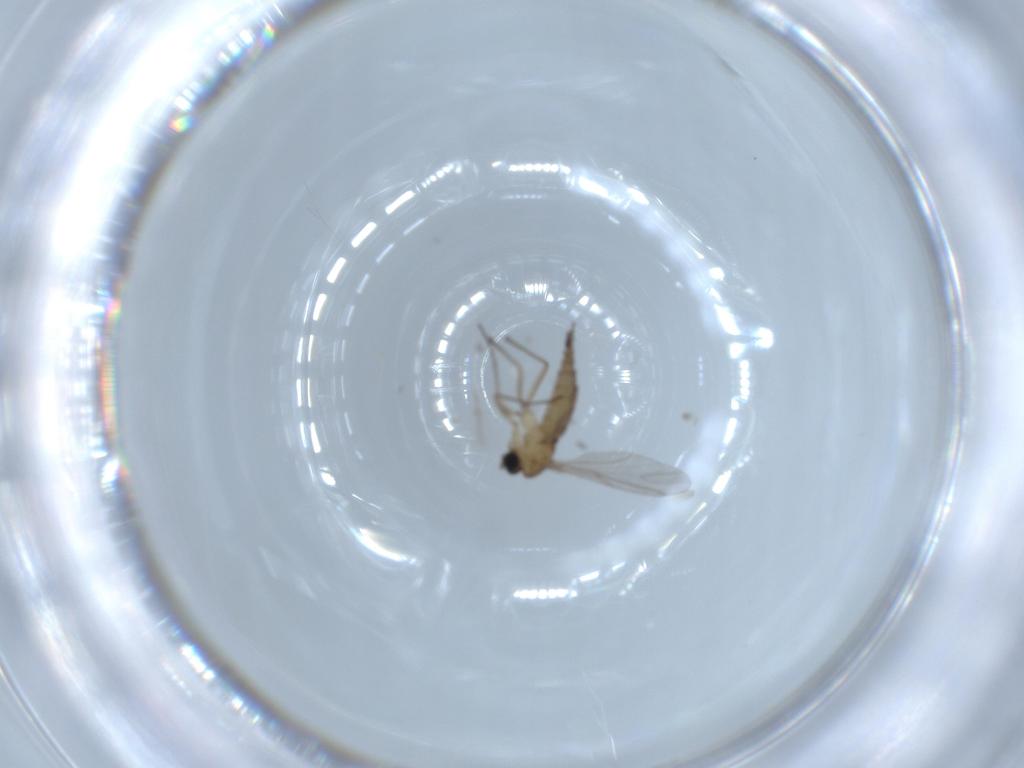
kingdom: Animalia
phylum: Arthropoda
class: Insecta
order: Diptera
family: Sciaridae
